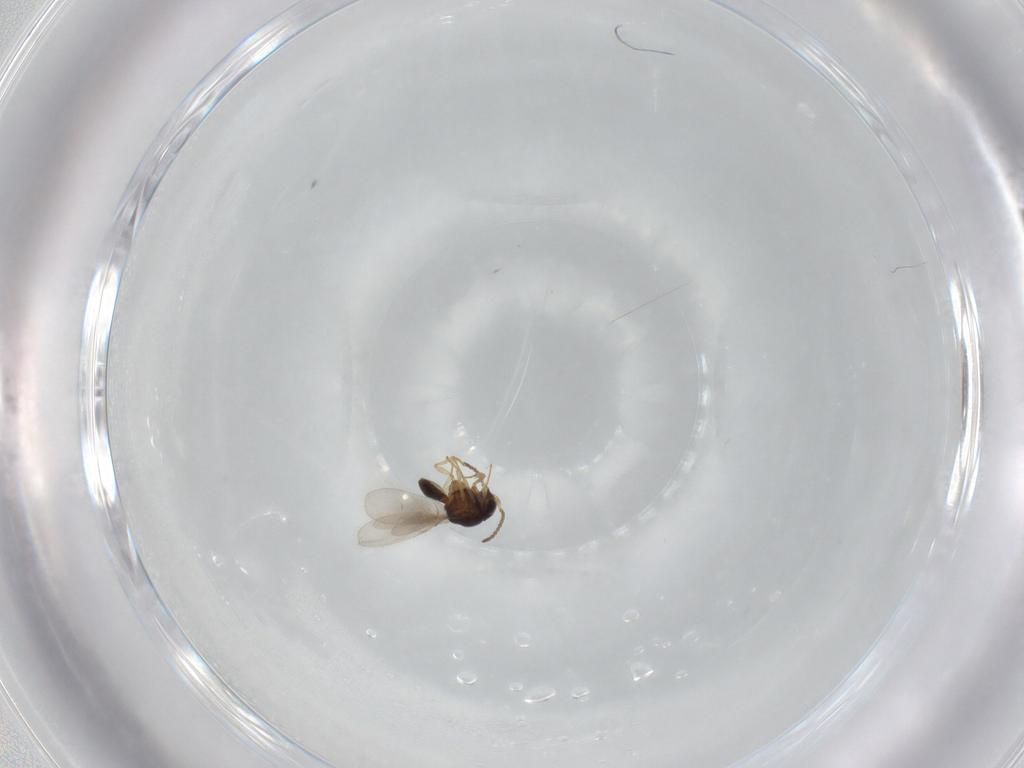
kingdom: Animalia
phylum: Arthropoda
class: Insecta
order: Hymenoptera
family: Scelionidae
